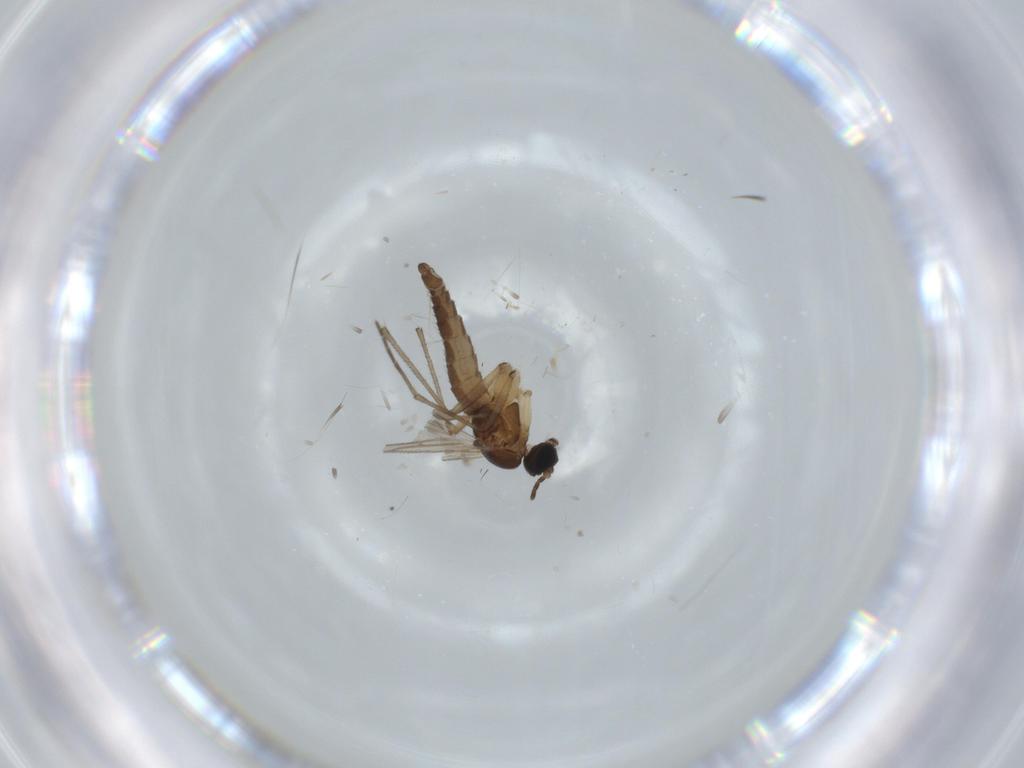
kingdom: Animalia
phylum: Arthropoda
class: Insecta
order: Diptera
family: Sciaridae
